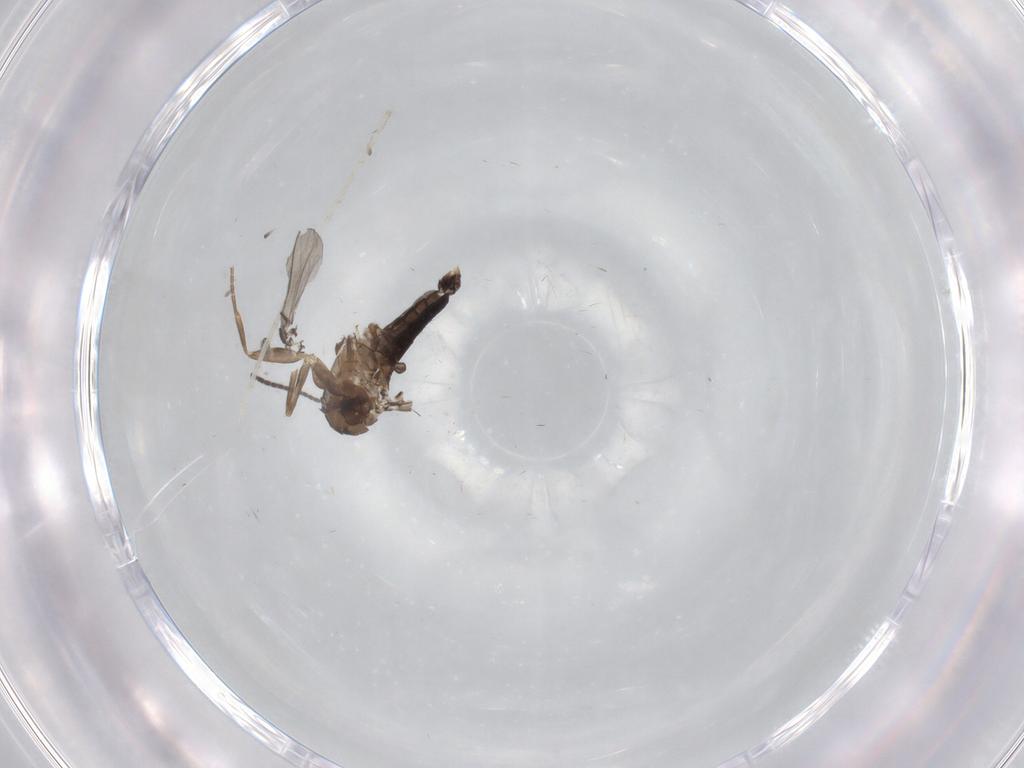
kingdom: Animalia
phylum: Arthropoda
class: Insecta
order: Diptera
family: Sciaridae
